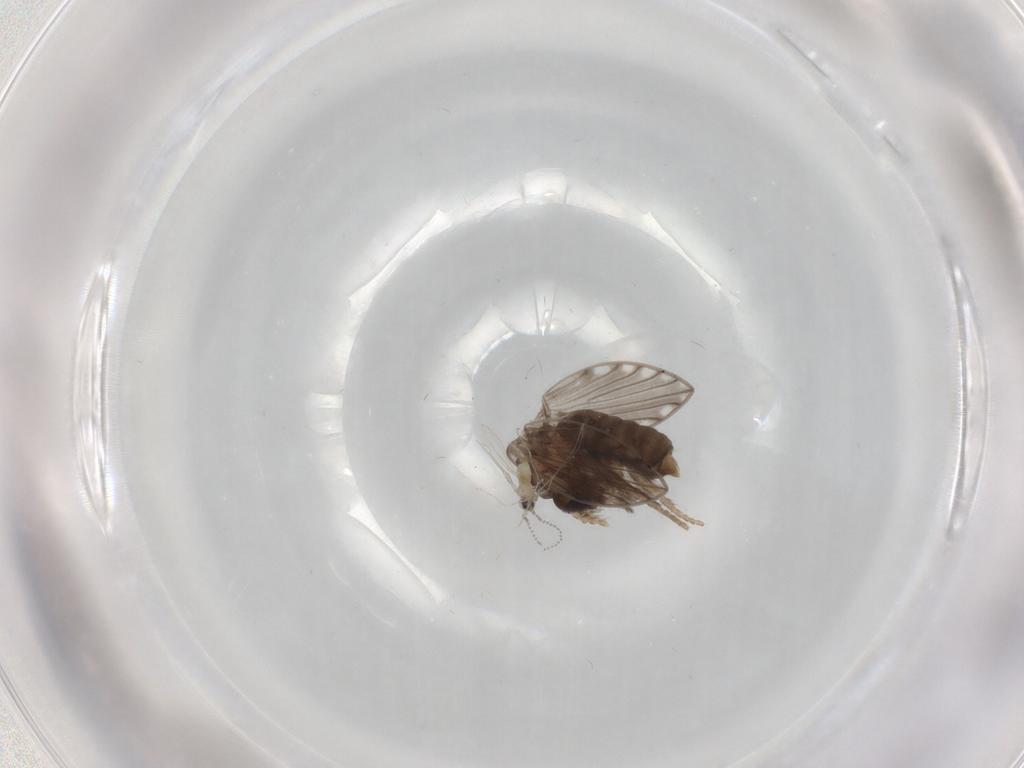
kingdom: Animalia
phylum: Arthropoda
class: Insecta
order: Diptera
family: Psychodidae
